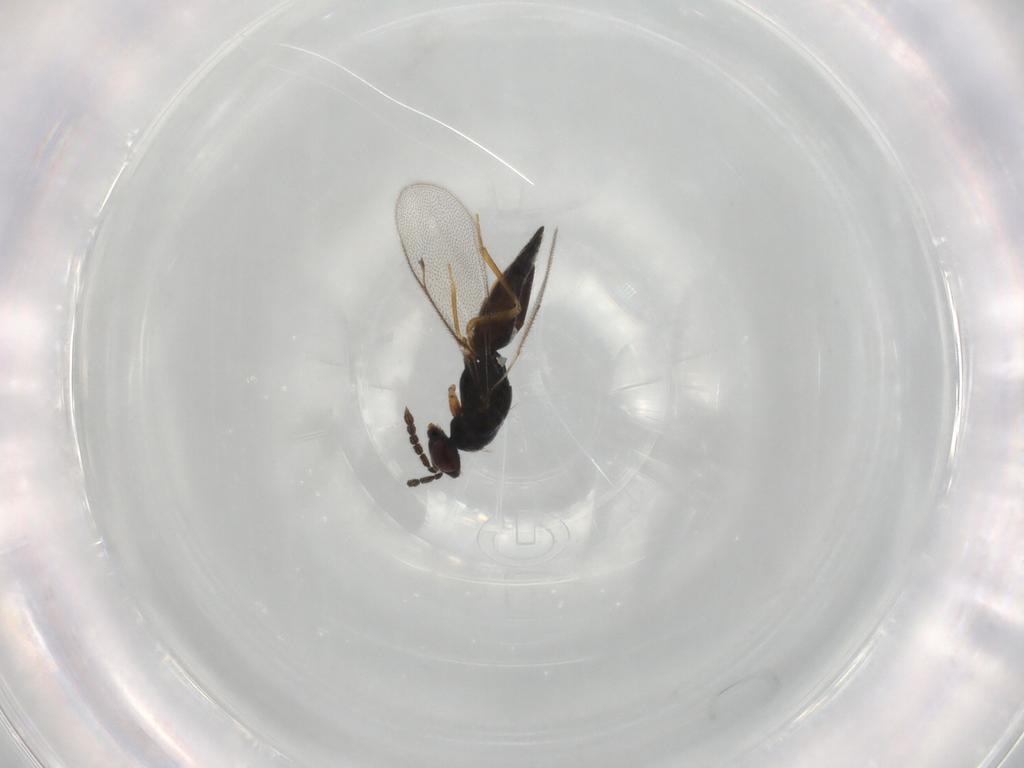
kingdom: Animalia
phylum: Arthropoda
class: Insecta
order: Hymenoptera
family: Eulophidae
